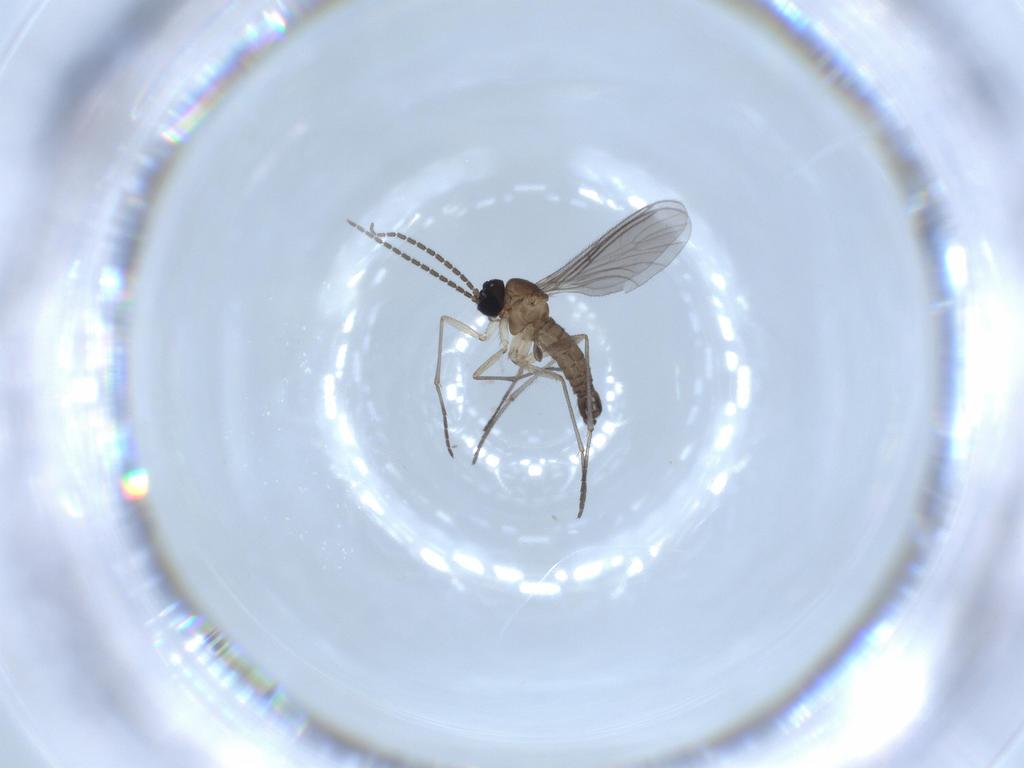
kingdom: Animalia
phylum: Arthropoda
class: Insecta
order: Diptera
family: Sciaridae
